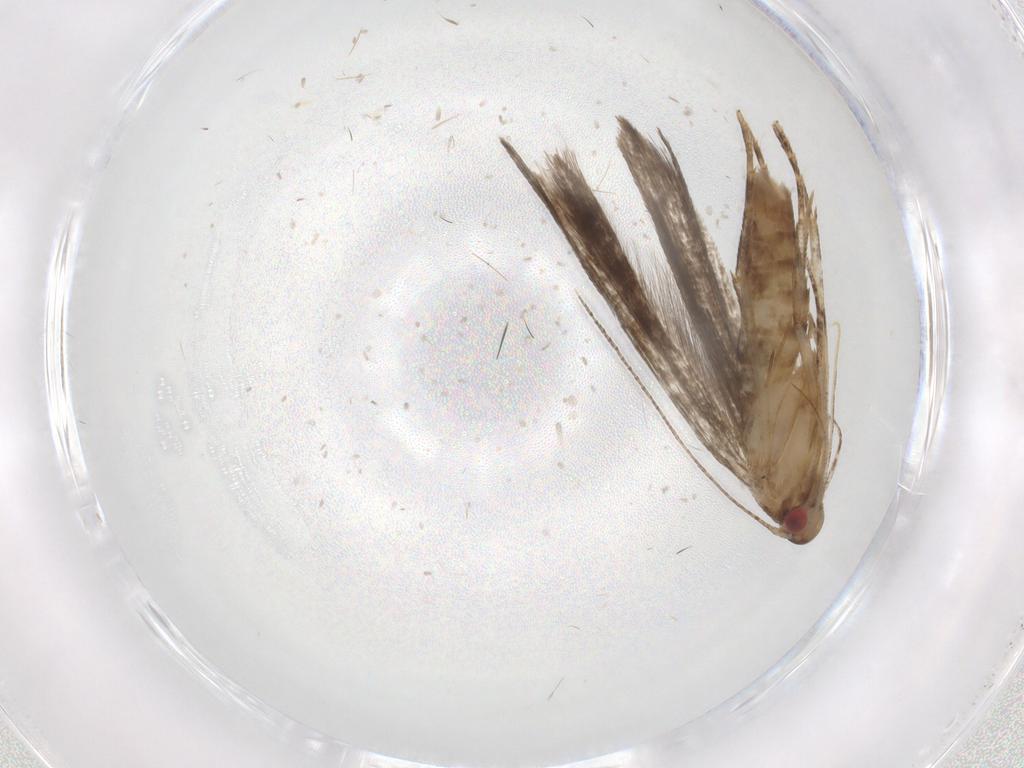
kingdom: Animalia
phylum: Arthropoda
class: Insecta
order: Lepidoptera
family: Gelechiidae
